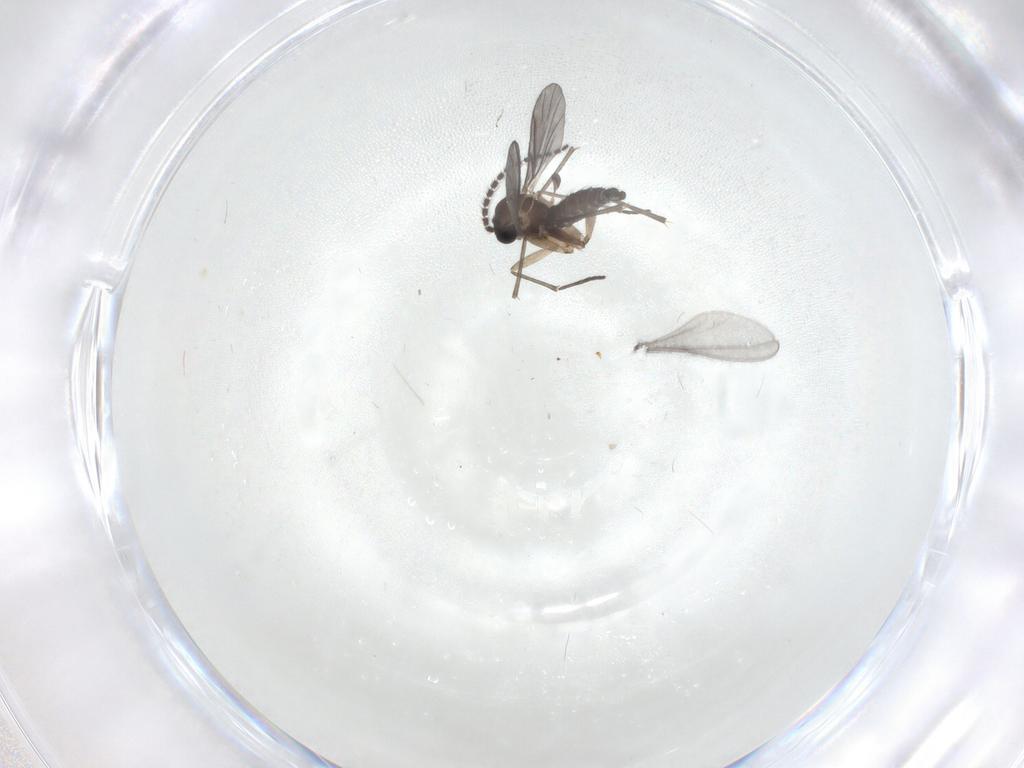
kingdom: Animalia
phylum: Arthropoda
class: Insecta
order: Diptera
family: Sciaridae
